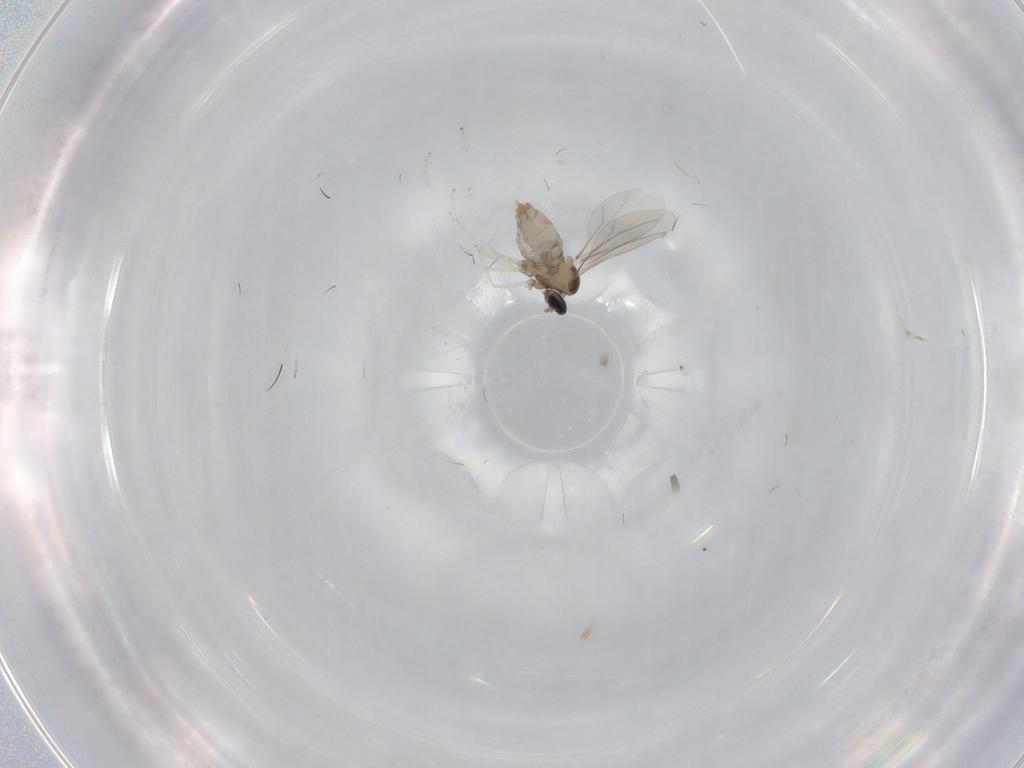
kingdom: Animalia
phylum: Arthropoda
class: Insecta
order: Diptera
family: Cecidomyiidae
